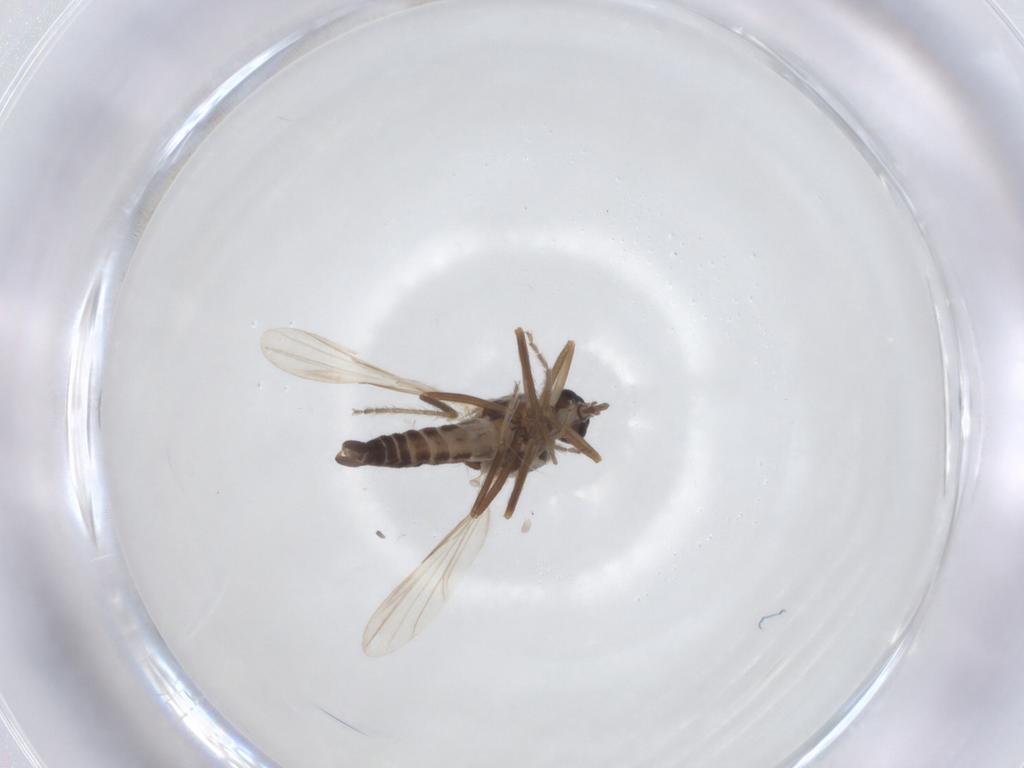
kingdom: Animalia
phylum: Arthropoda
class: Insecta
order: Diptera
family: Ceratopogonidae
